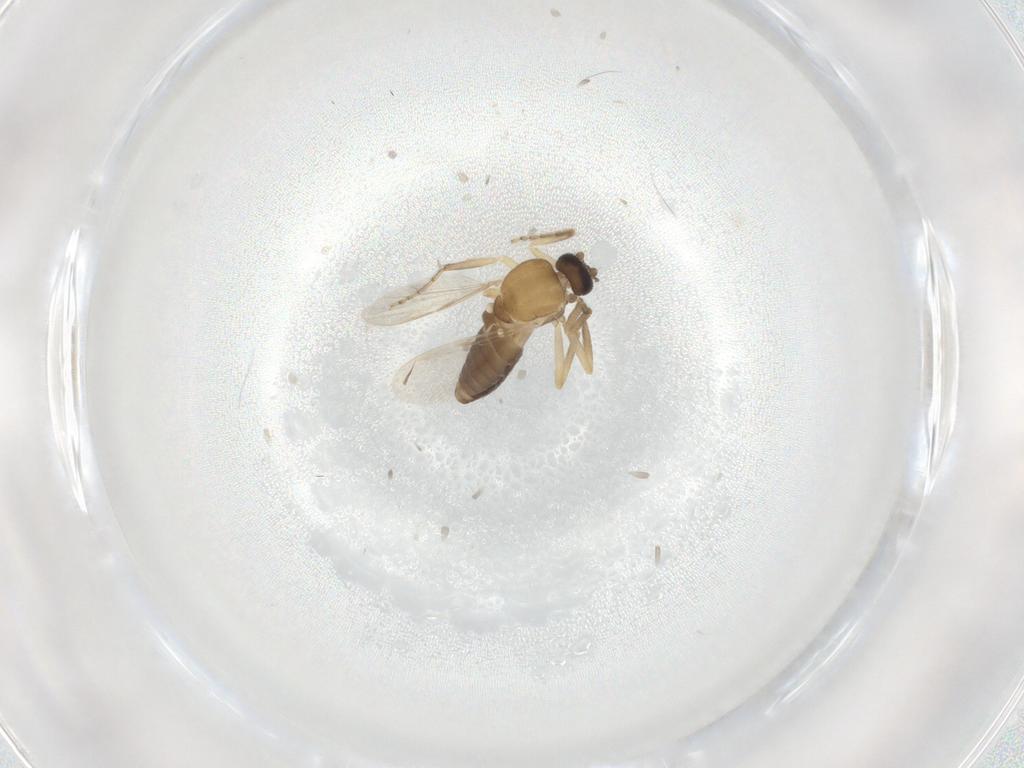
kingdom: Animalia
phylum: Arthropoda
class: Insecta
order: Diptera
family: Ceratopogonidae
